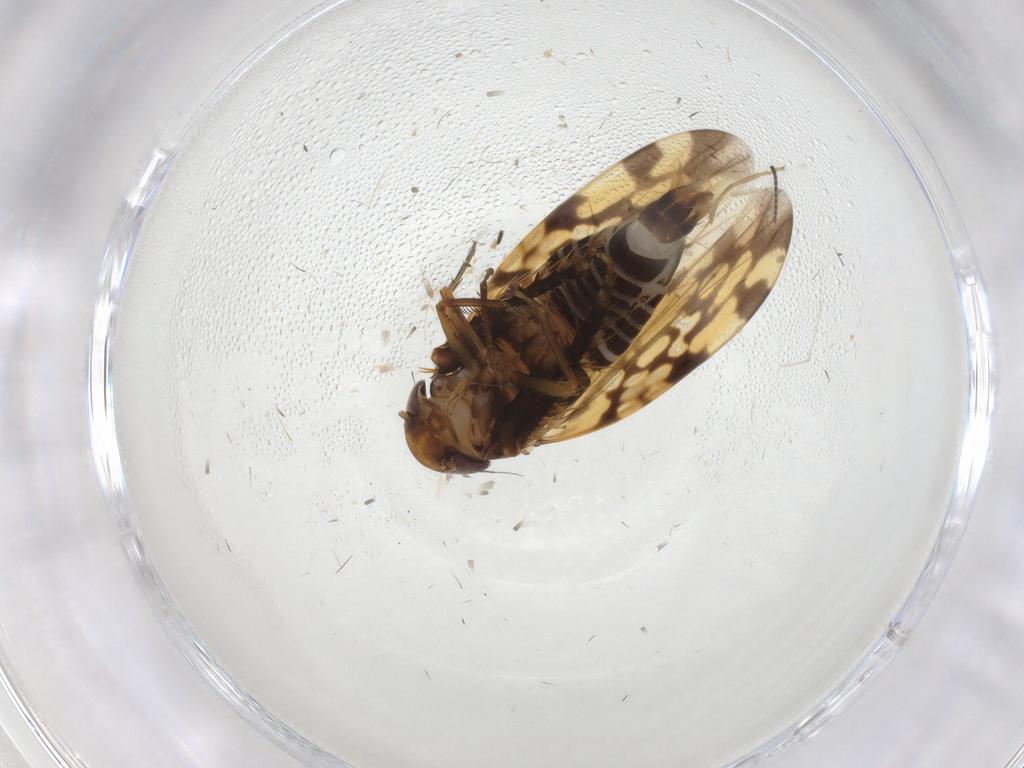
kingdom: Animalia
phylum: Arthropoda
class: Insecta
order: Hemiptera
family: Cicadellidae
